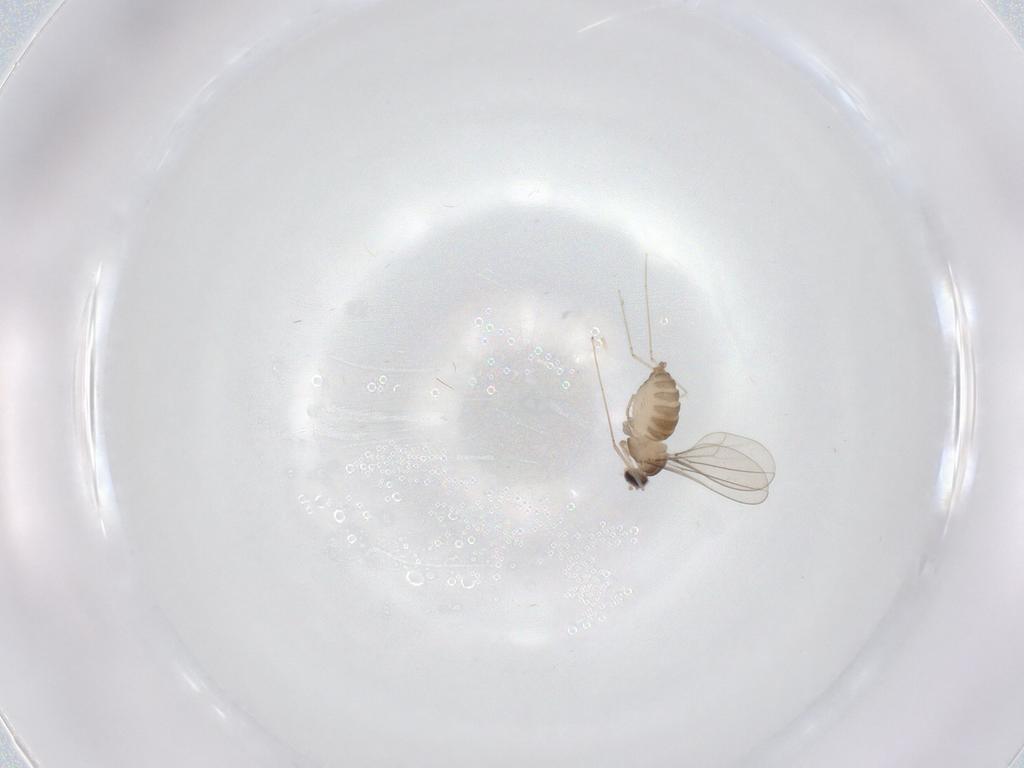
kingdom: Animalia
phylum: Arthropoda
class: Insecta
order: Diptera
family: Cecidomyiidae
